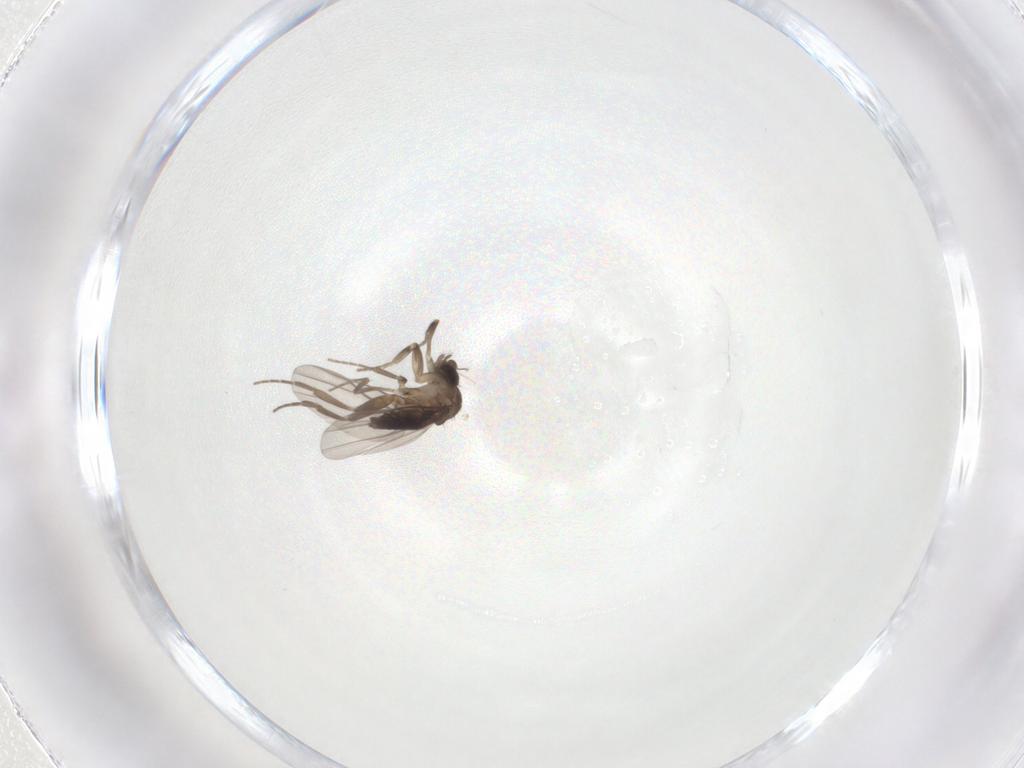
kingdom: Animalia
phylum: Arthropoda
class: Insecta
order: Diptera
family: Phoridae
